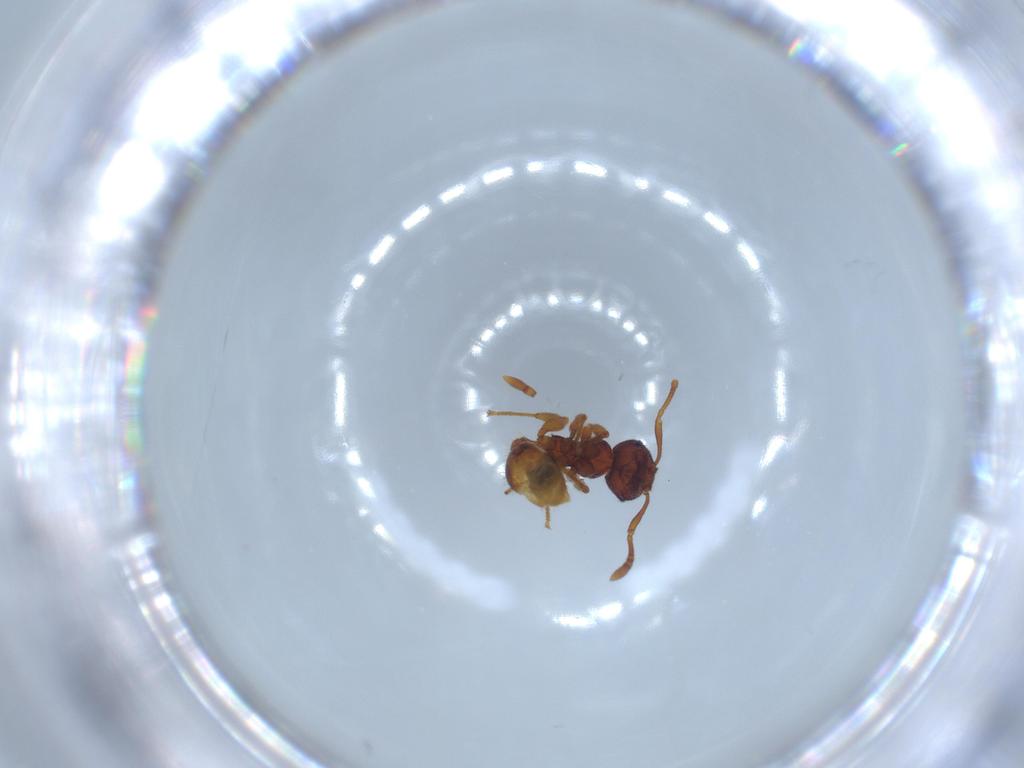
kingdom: Animalia
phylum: Arthropoda
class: Insecta
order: Hymenoptera
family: Formicidae
